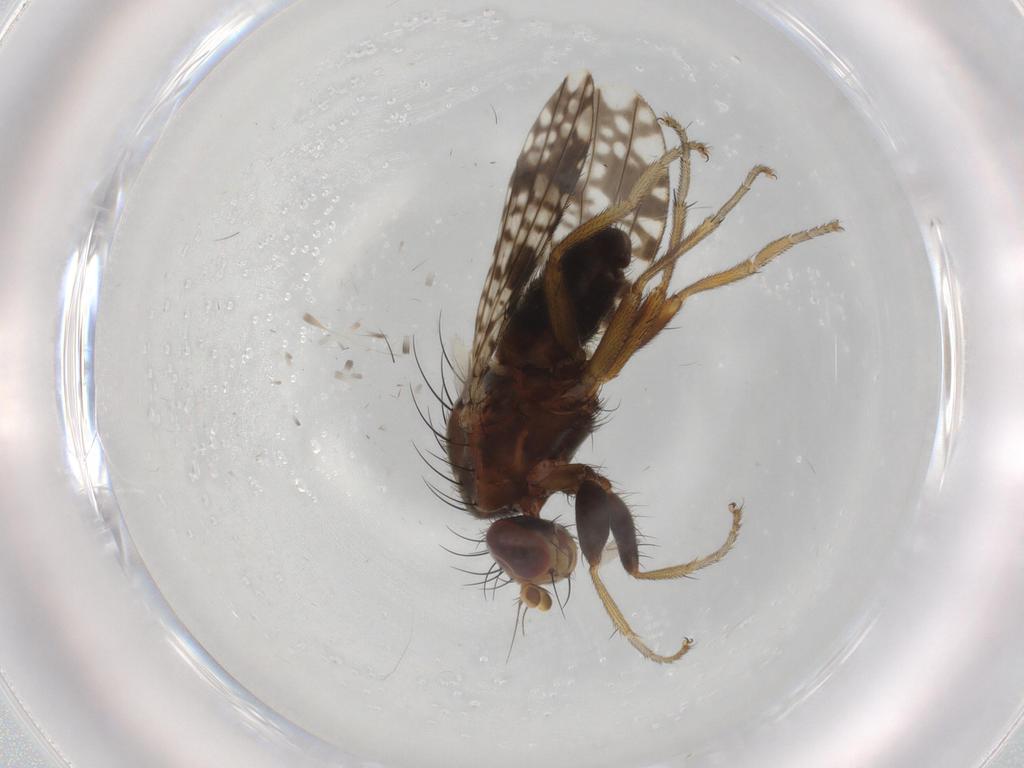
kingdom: Animalia
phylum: Arthropoda
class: Insecta
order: Diptera
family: Tephritidae
